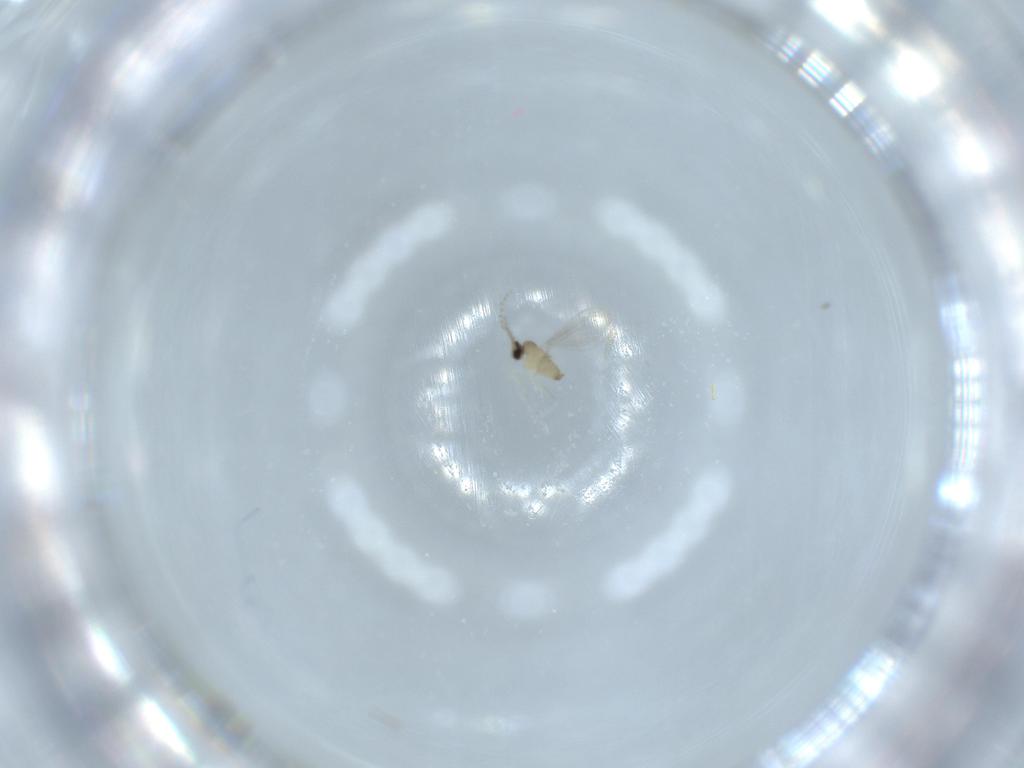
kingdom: Animalia
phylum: Arthropoda
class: Insecta
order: Diptera
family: Cecidomyiidae
